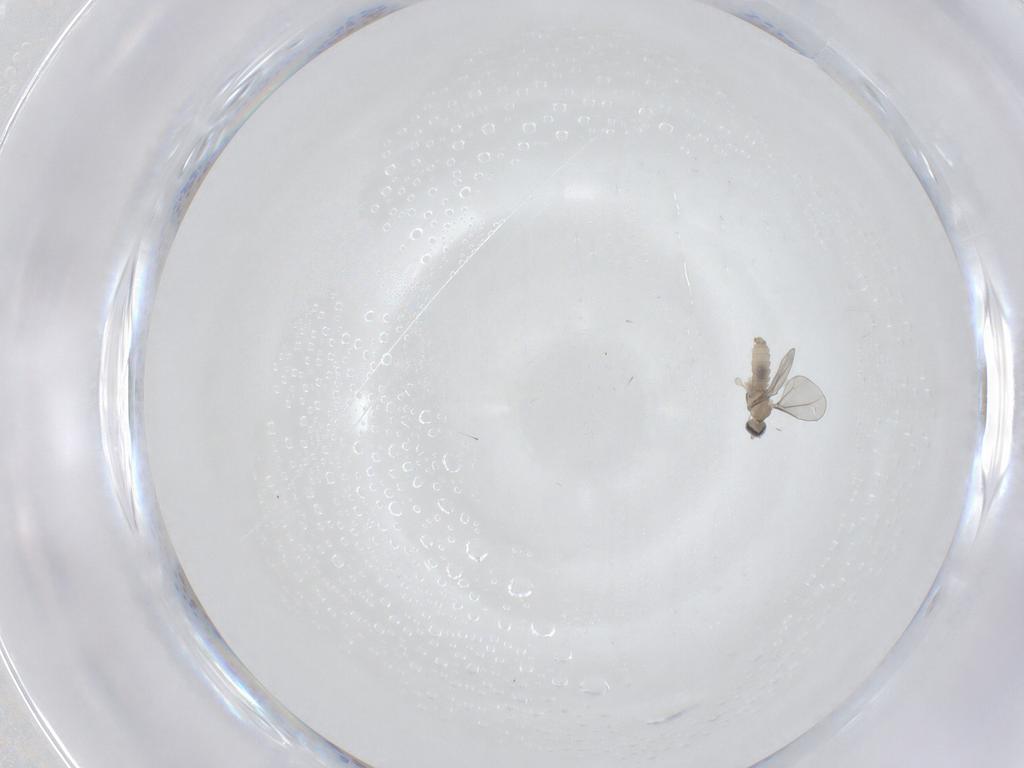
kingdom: Animalia
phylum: Arthropoda
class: Insecta
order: Diptera
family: Cecidomyiidae
